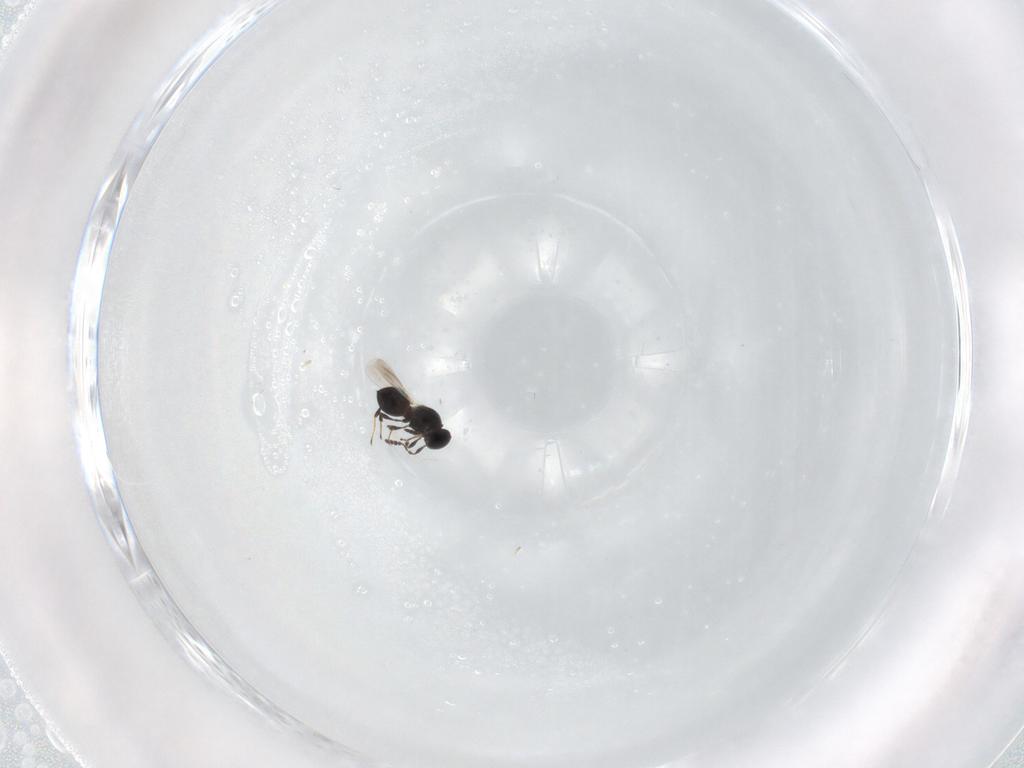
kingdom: Animalia
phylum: Arthropoda
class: Insecta
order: Hymenoptera
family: Platygastridae
